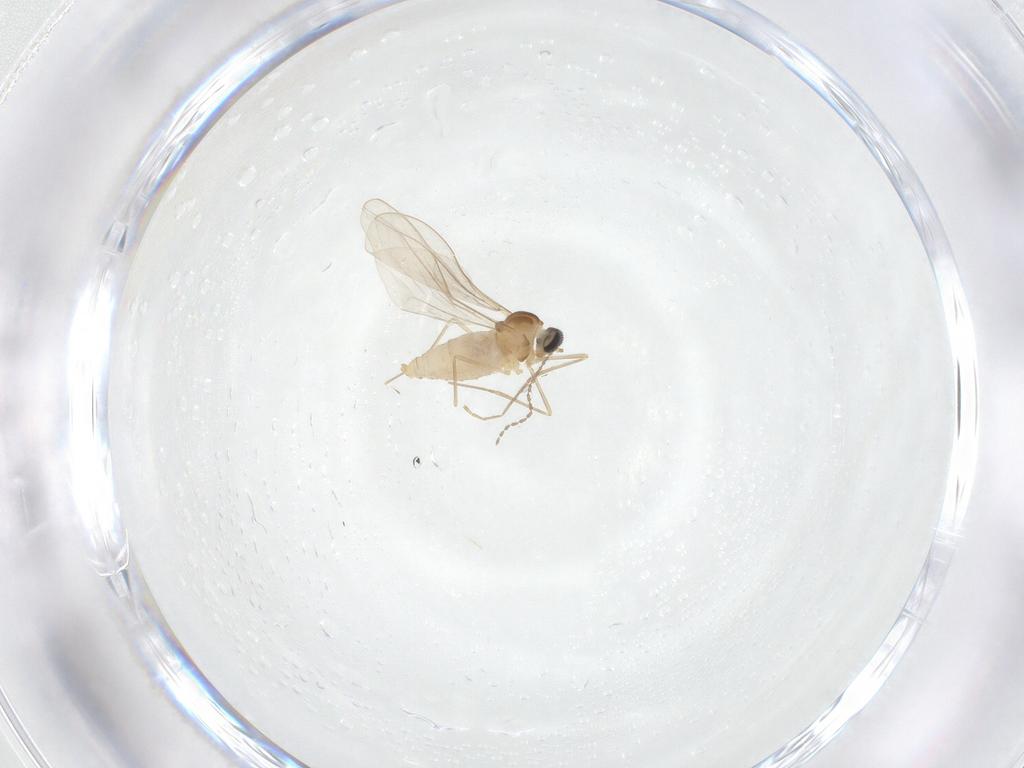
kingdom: Animalia
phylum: Arthropoda
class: Insecta
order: Diptera
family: Cecidomyiidae
